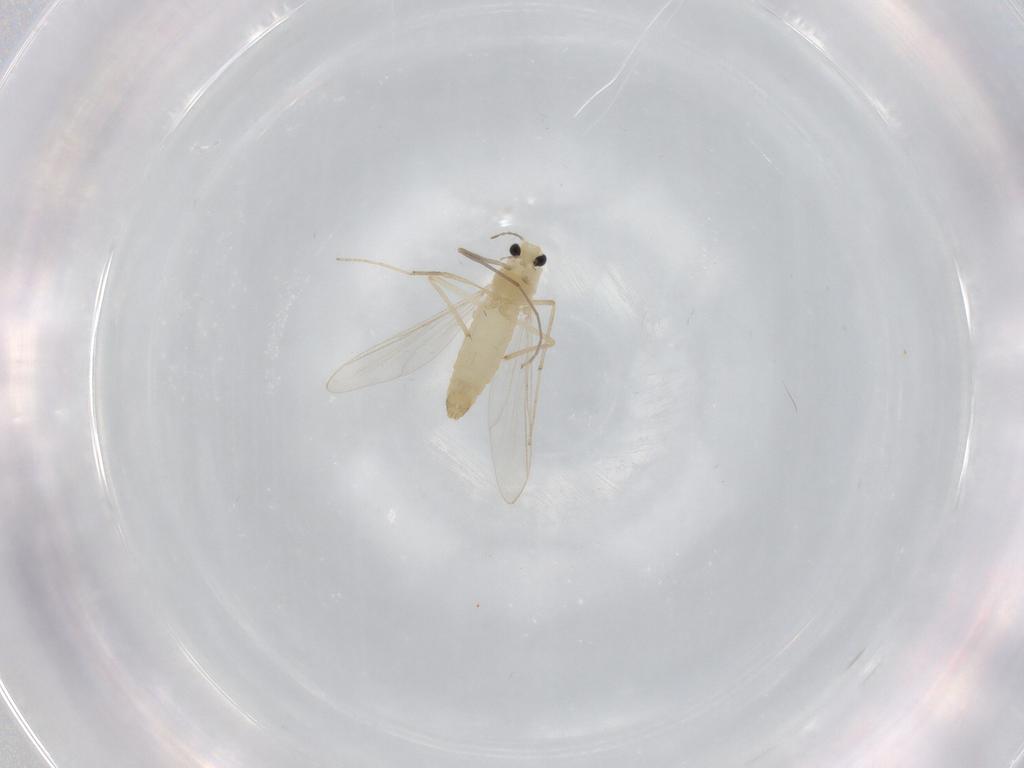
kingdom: Animalia
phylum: Arthropoda
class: Insecta
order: Diptera
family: Chironomidae
